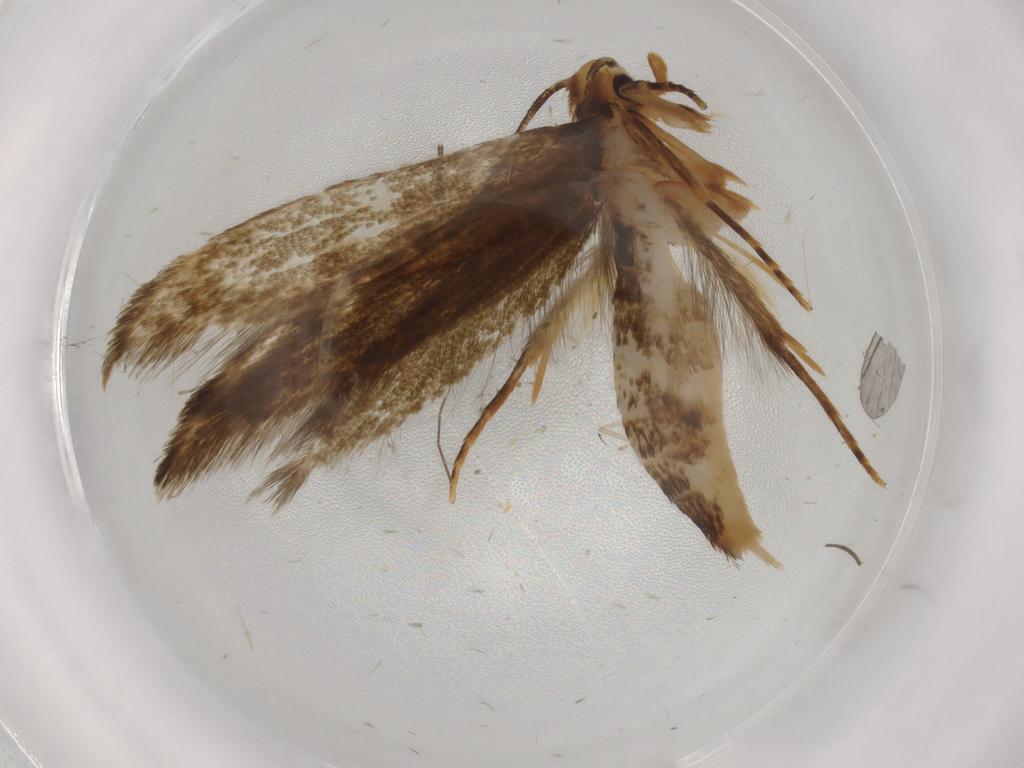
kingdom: Animalia
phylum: Arthropoda
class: Insecta
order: Lepidoptera
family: Tineidae
